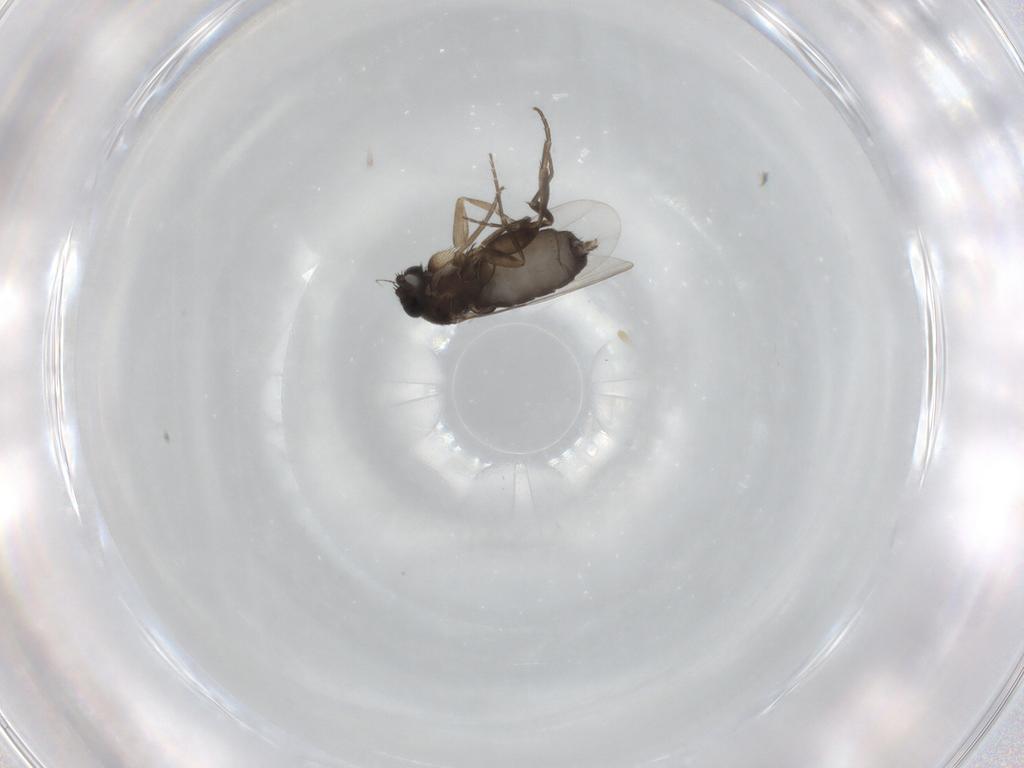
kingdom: Animalia
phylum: Arthropoda
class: Insecta
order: Diptera
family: Phoridae
